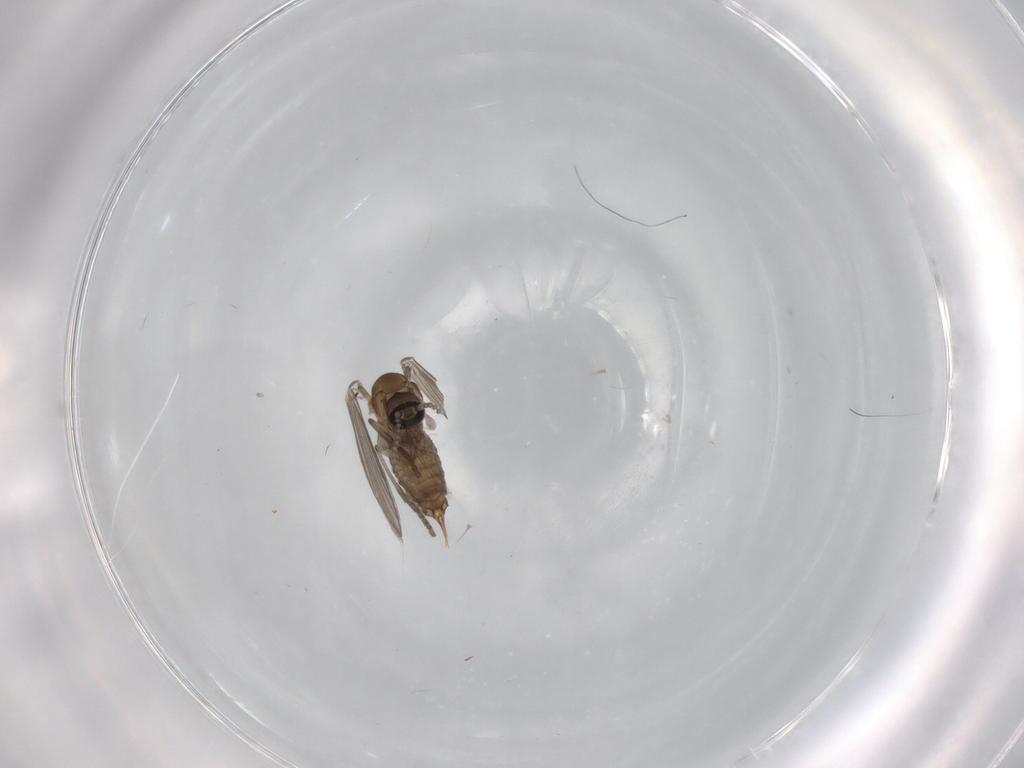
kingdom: Animalia
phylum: Arthropoda
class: Insecta
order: Diptera
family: Psychodidae
